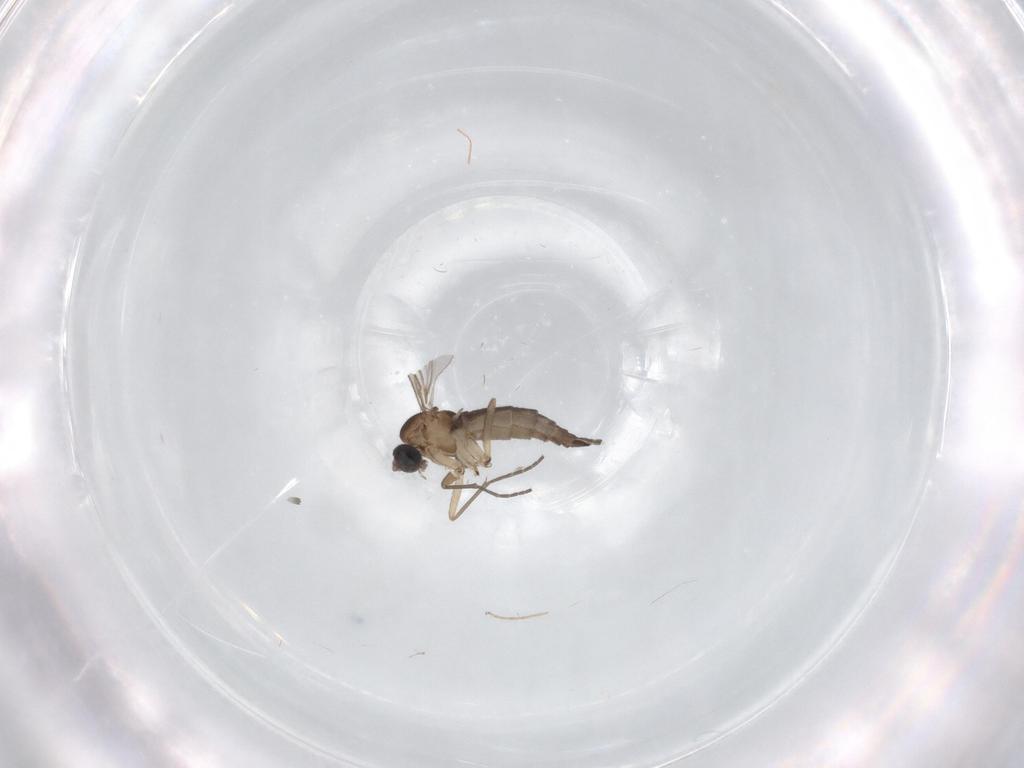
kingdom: Animalia
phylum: Arthropoda
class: Insecta
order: Diptera
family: Sciaridae
